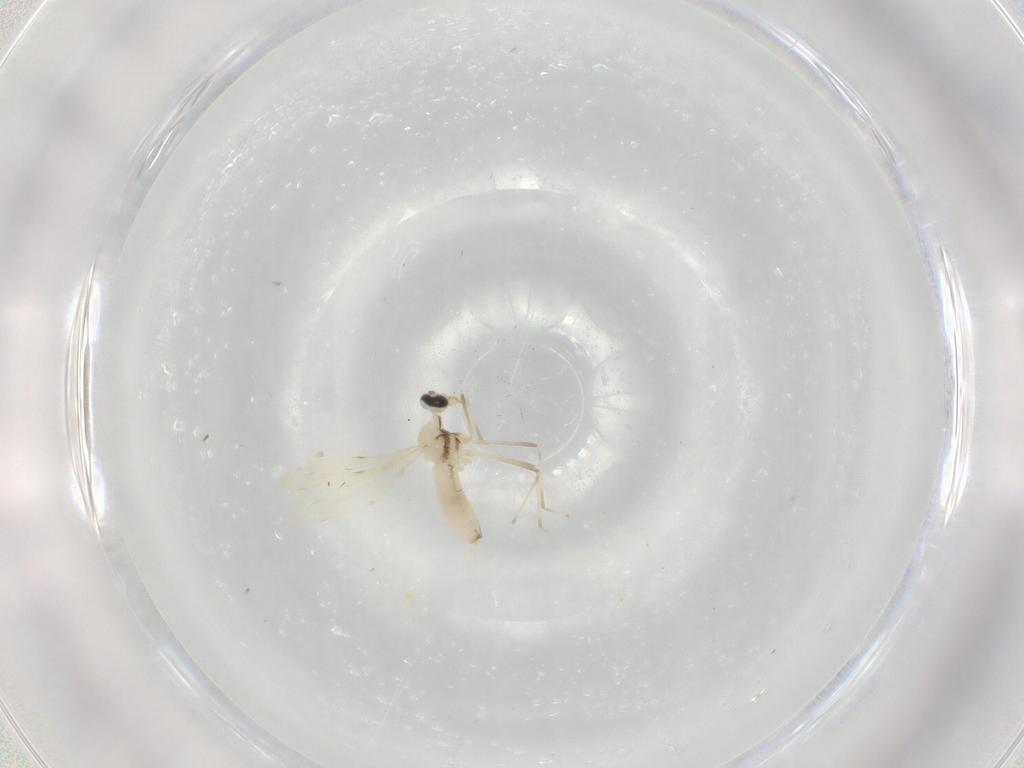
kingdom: Animalia
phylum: Arthropoda
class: Insecta
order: Diptera
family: Cecidomyiidae
